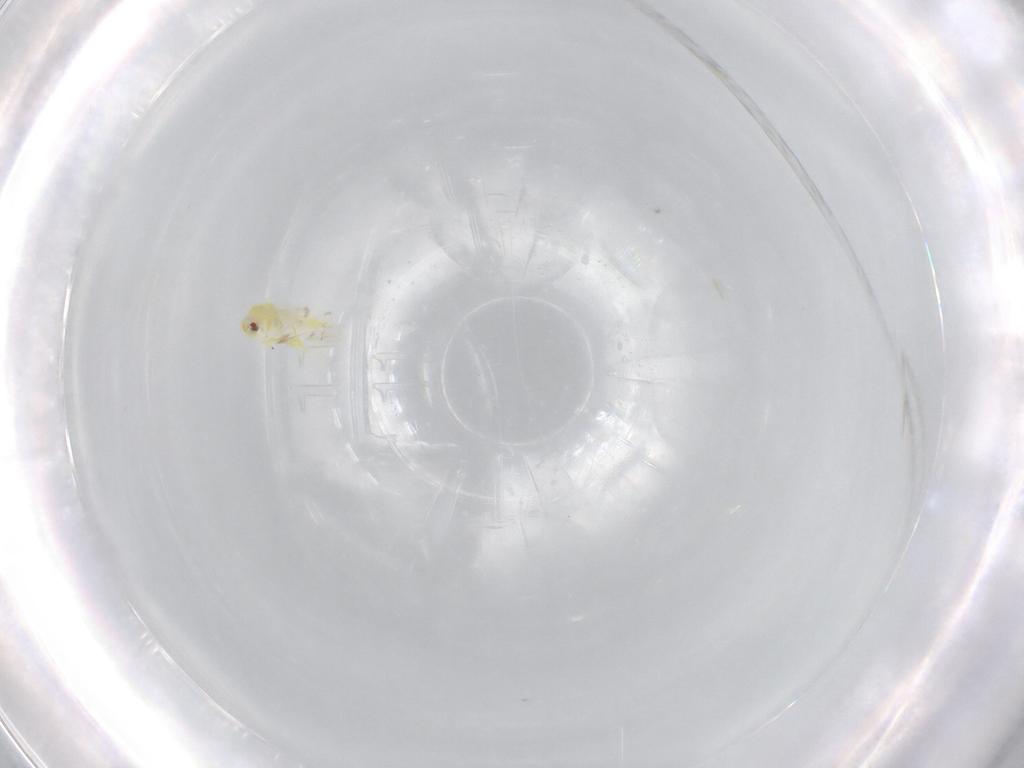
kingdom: Animalia
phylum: Arthropoda
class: Insecta
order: Hemiptera
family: Aleyrodidae
